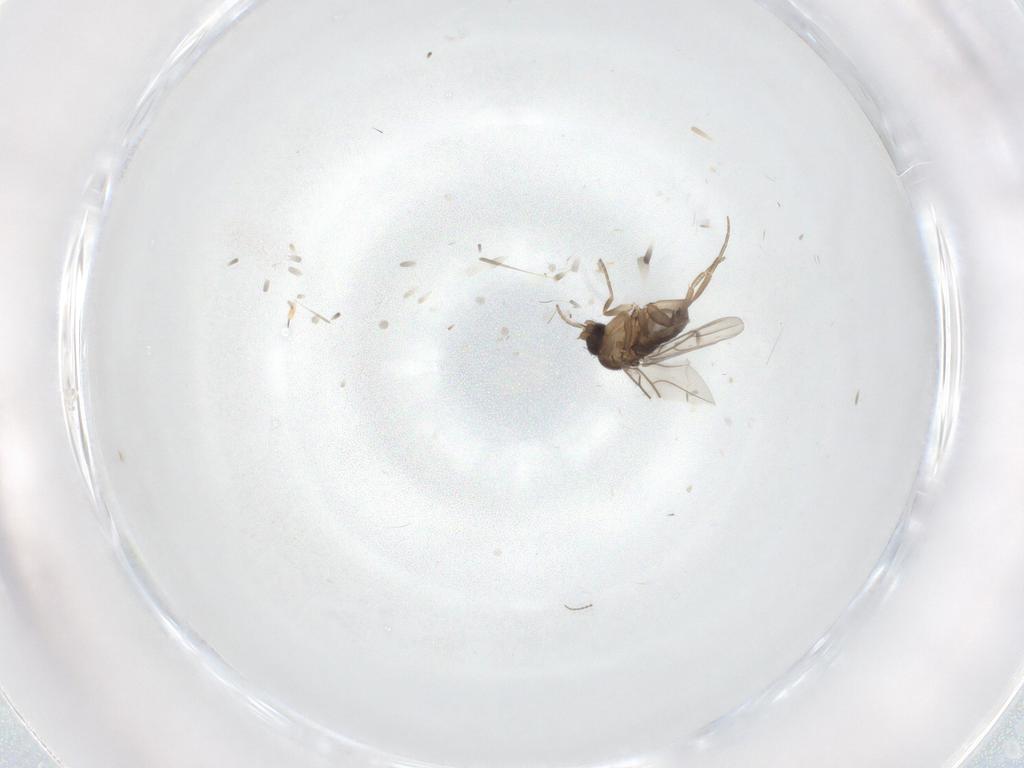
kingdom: Animalia
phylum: Arthropoda
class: Insecta
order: Diptera
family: Phoridae
